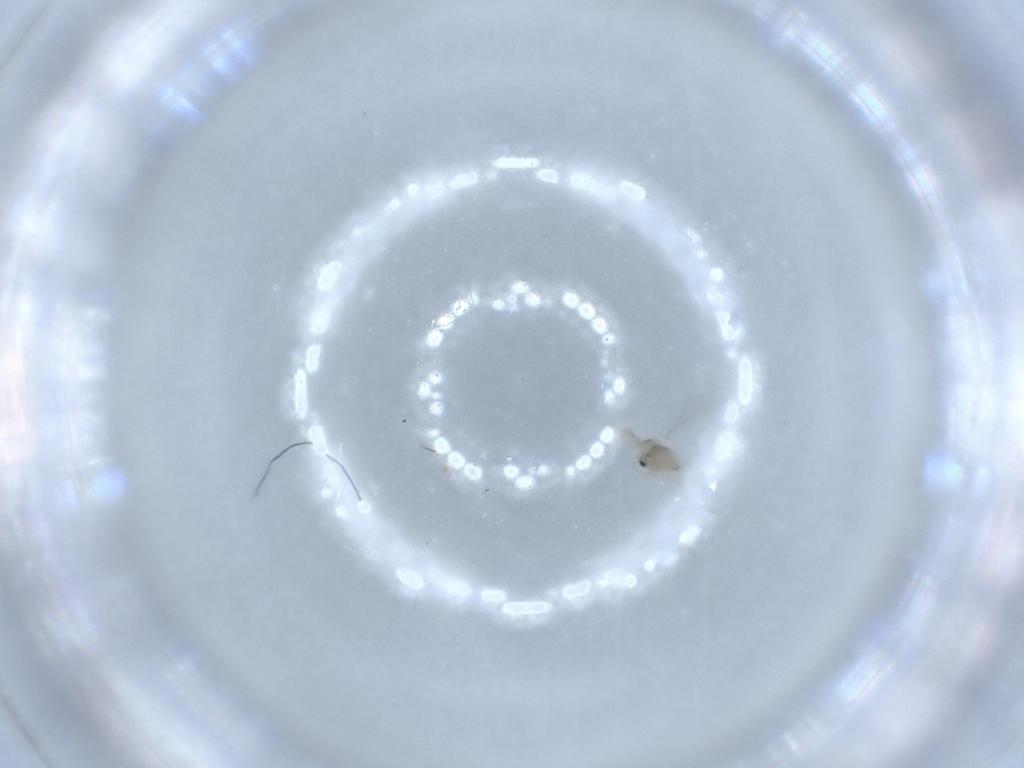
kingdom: Animalia
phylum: Arthropoda
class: Insecta
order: Diptera
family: Cecidomyiidae
